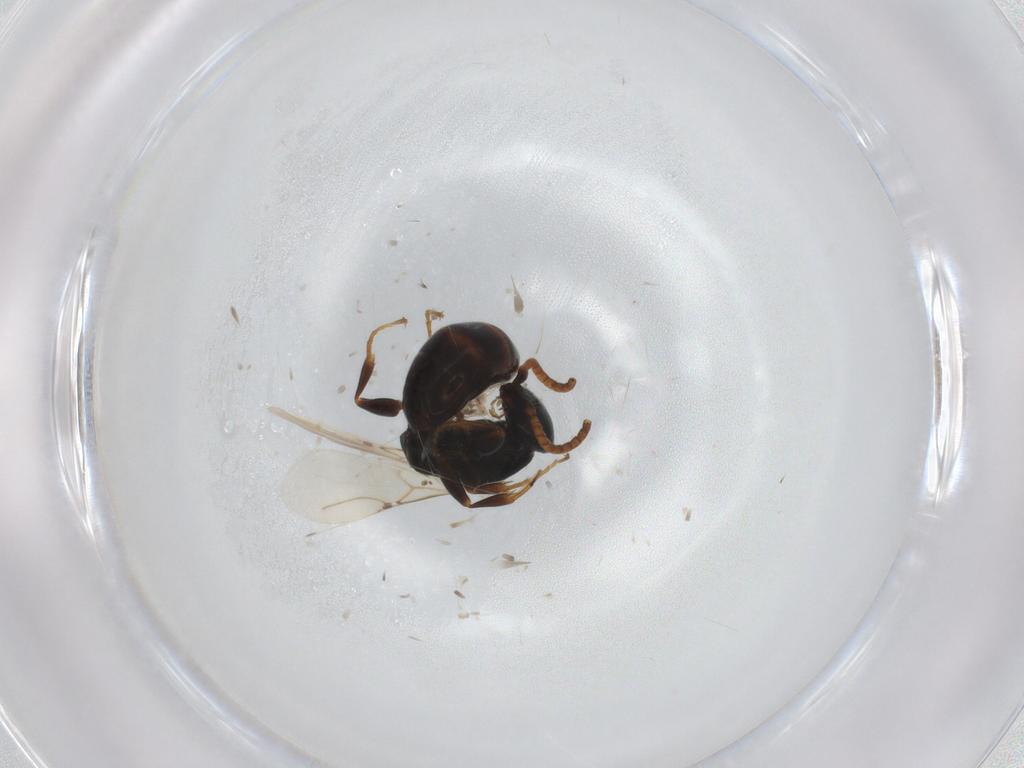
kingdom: Animalia
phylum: Arthropoda
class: Insecta
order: Hymenoptera
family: Bethylidae
